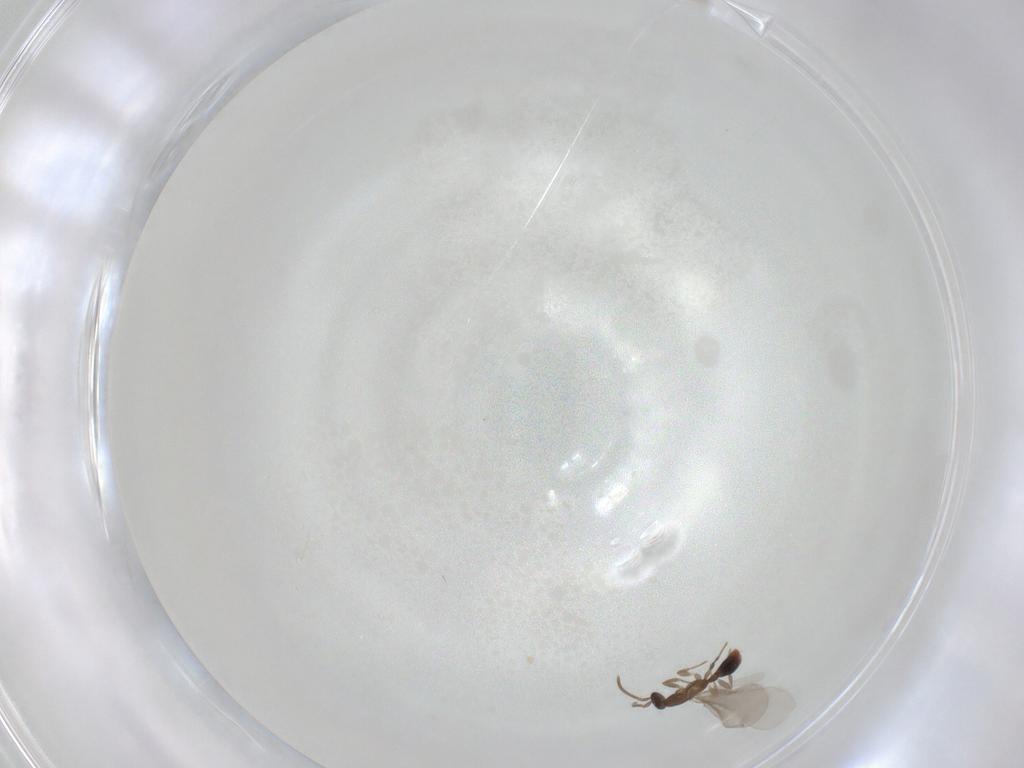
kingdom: Animalia
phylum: Arthropoda
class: Insecta
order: Hymenoptera
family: Formicidae
